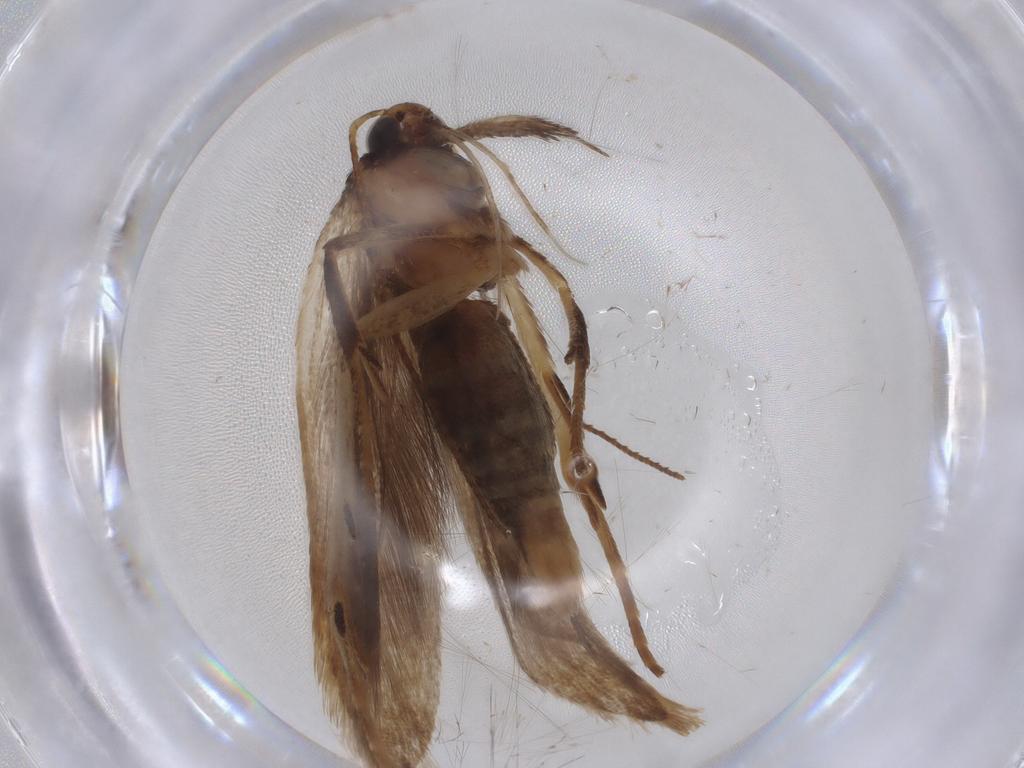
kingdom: Animalia
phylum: Arthropoda
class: Insecta
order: Lepidoptera
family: Gelechiidae
